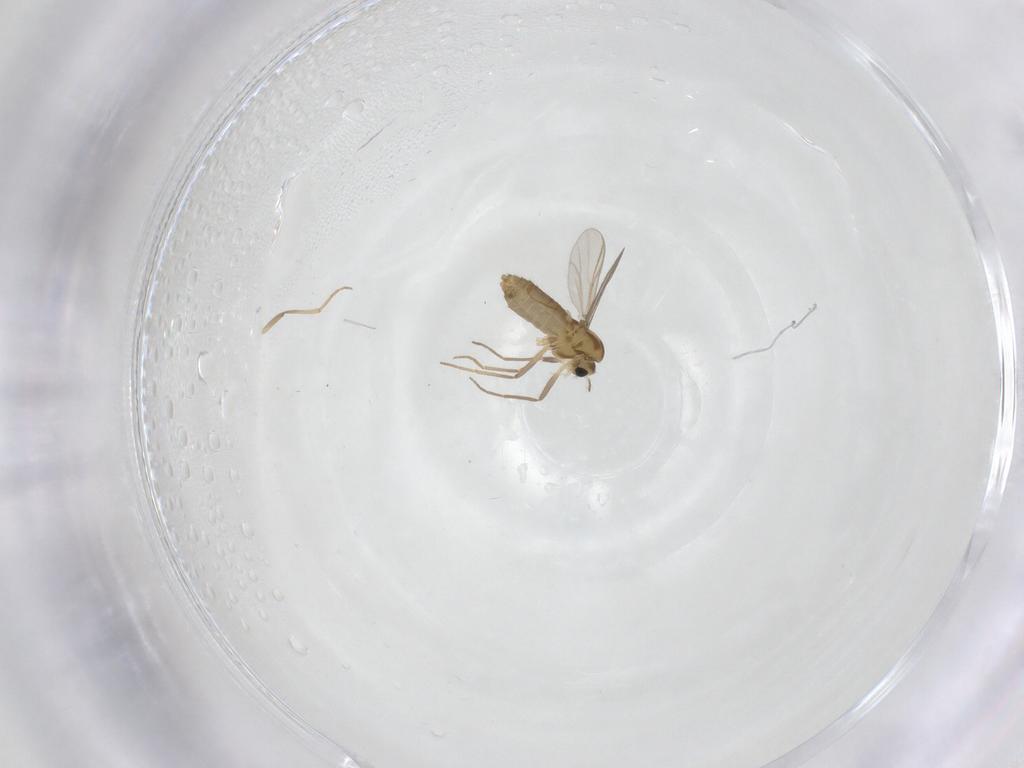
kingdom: Animalia
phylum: Arthropoda
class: Insecta
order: Diptera
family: Chironomidae
